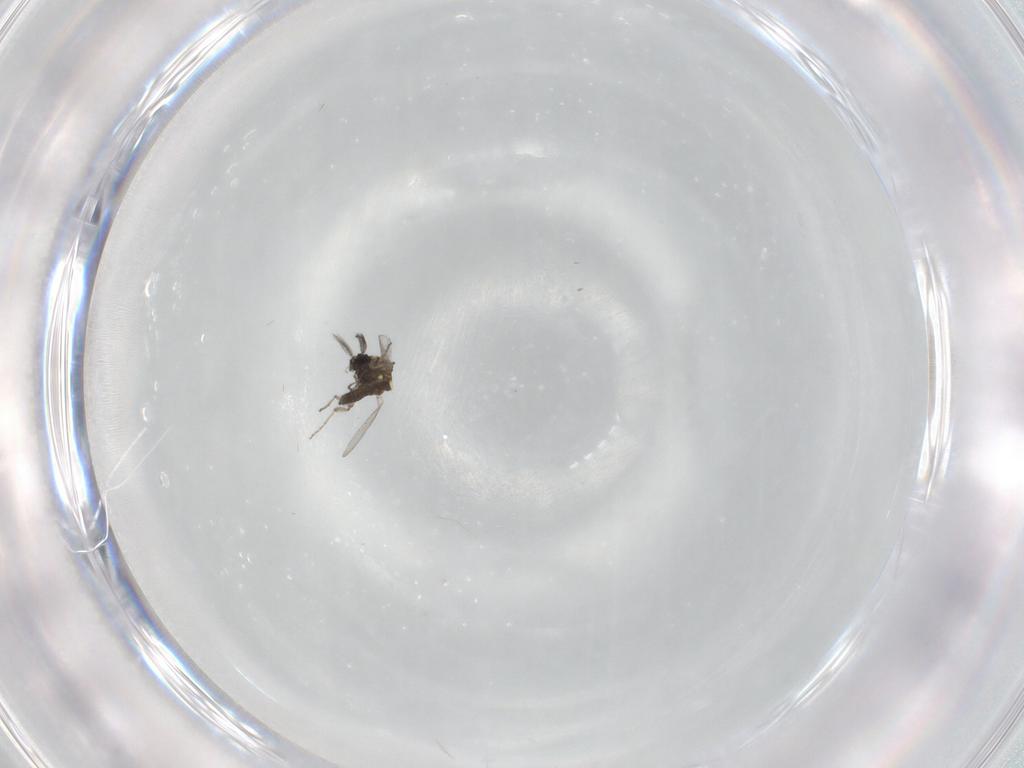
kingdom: Animalia
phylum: Arthropoda
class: Insecta
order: Diptera
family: Ceratopogonidae
